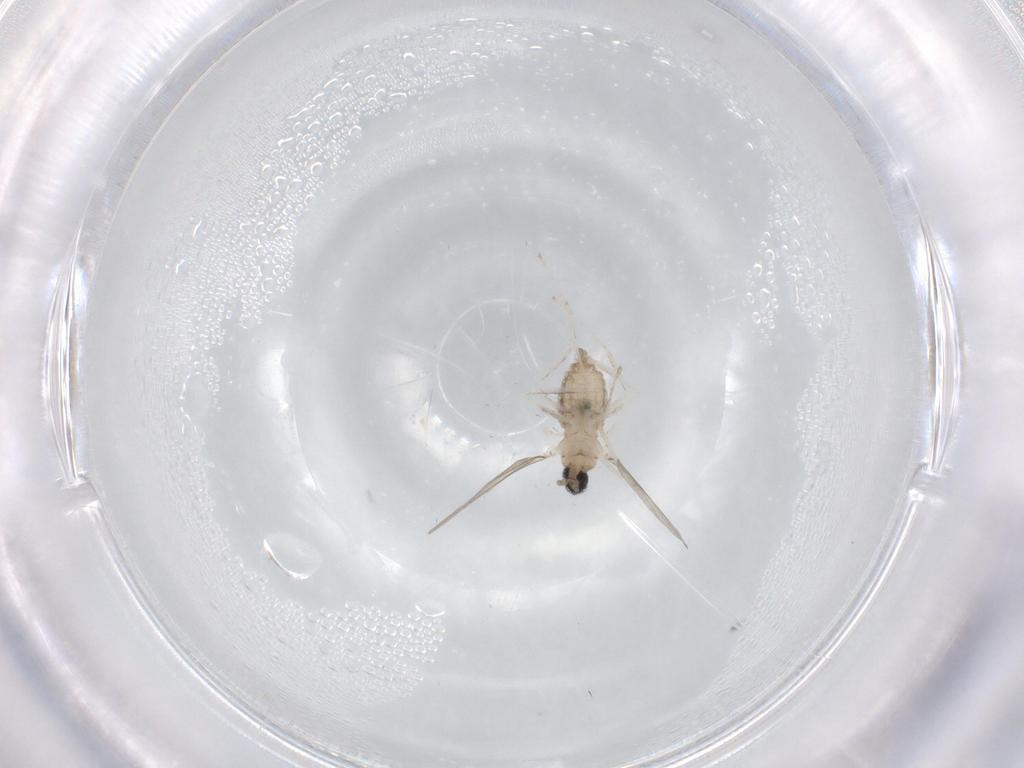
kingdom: Animalia
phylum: Arthropoda
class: Insecta
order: Diptera
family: Cecidomyiidae
